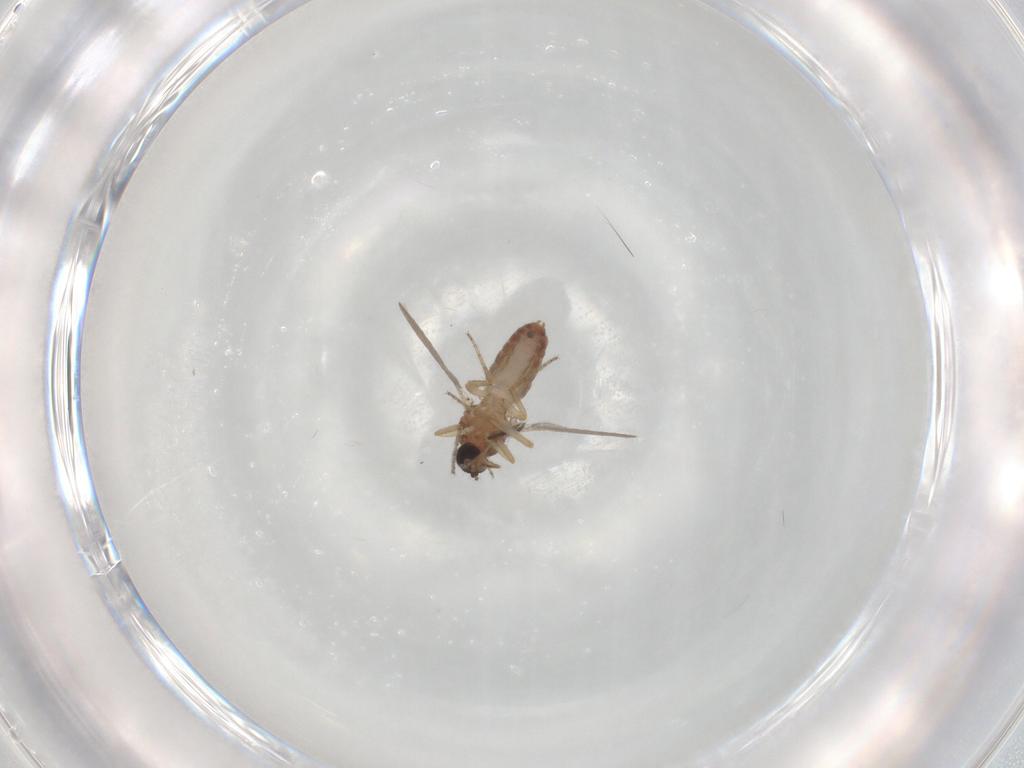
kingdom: Animalia
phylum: Arthropoda
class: Insecta
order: Diptera
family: Ceratopogonidae
